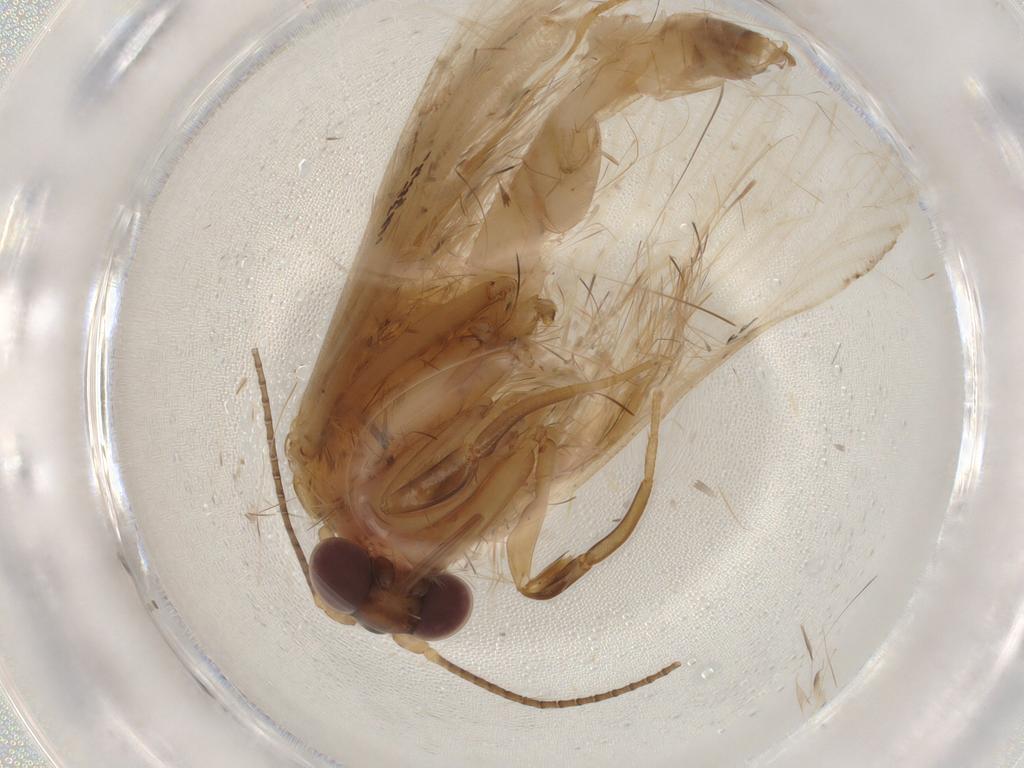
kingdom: Animalia
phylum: Arthropoda
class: Insecta
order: Lepidoptera
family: Erebidae
